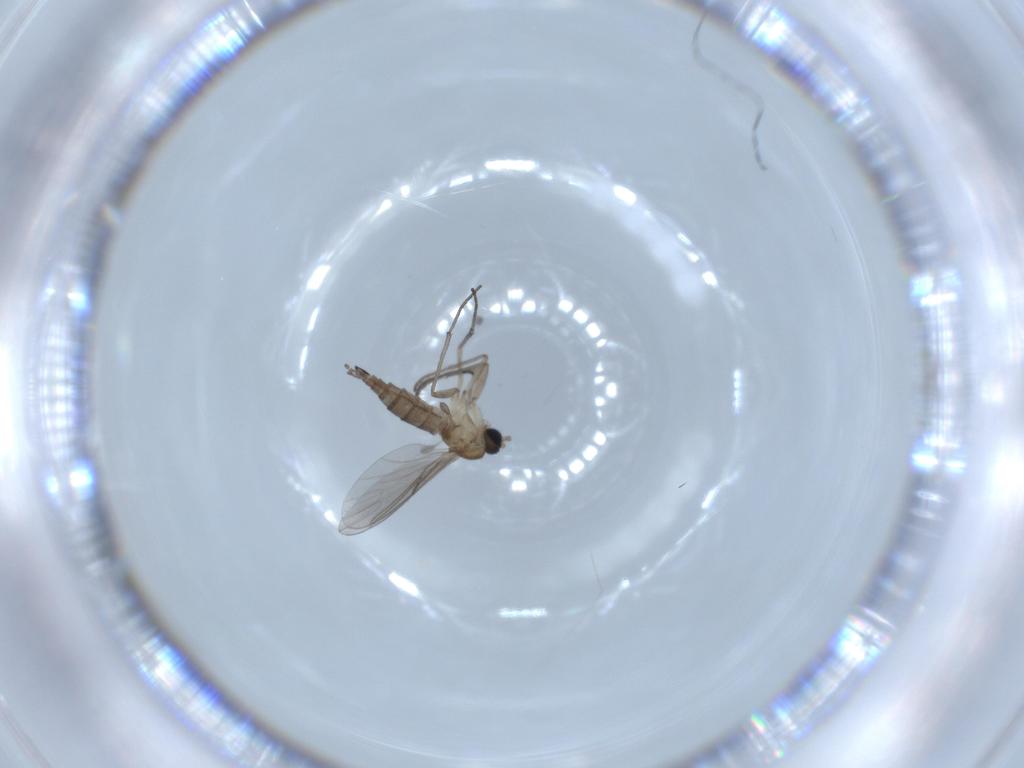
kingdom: Animalia
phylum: Arthropoda
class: Insecta
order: Diptera
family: Sciaridae
